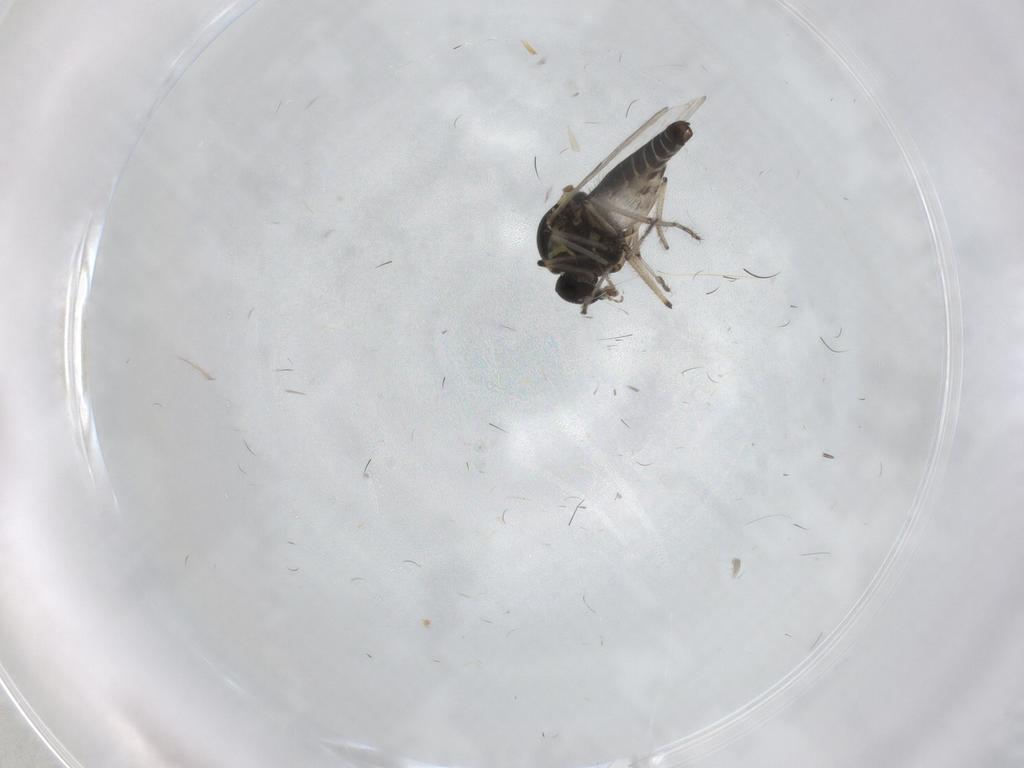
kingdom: Animalia
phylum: Arthropoda
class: Insecta
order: Diptera
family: Ceratopogonidae
